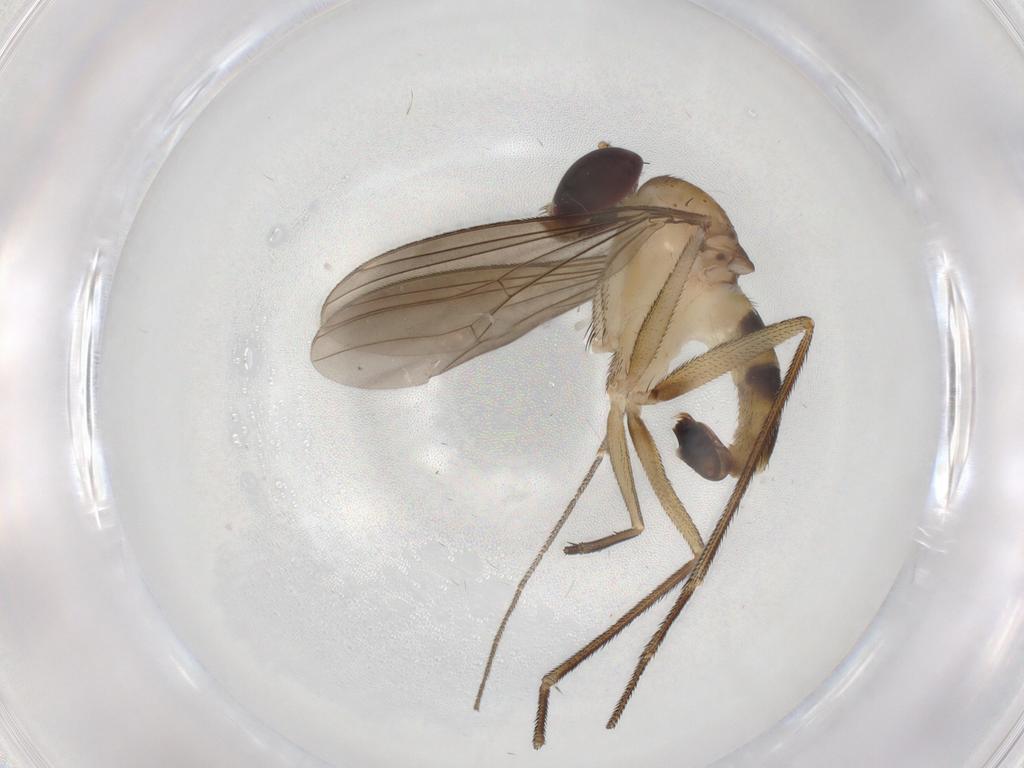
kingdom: Animalia
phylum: Arthropoda
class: Insecta
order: Diptera
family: Dolichopodidae
